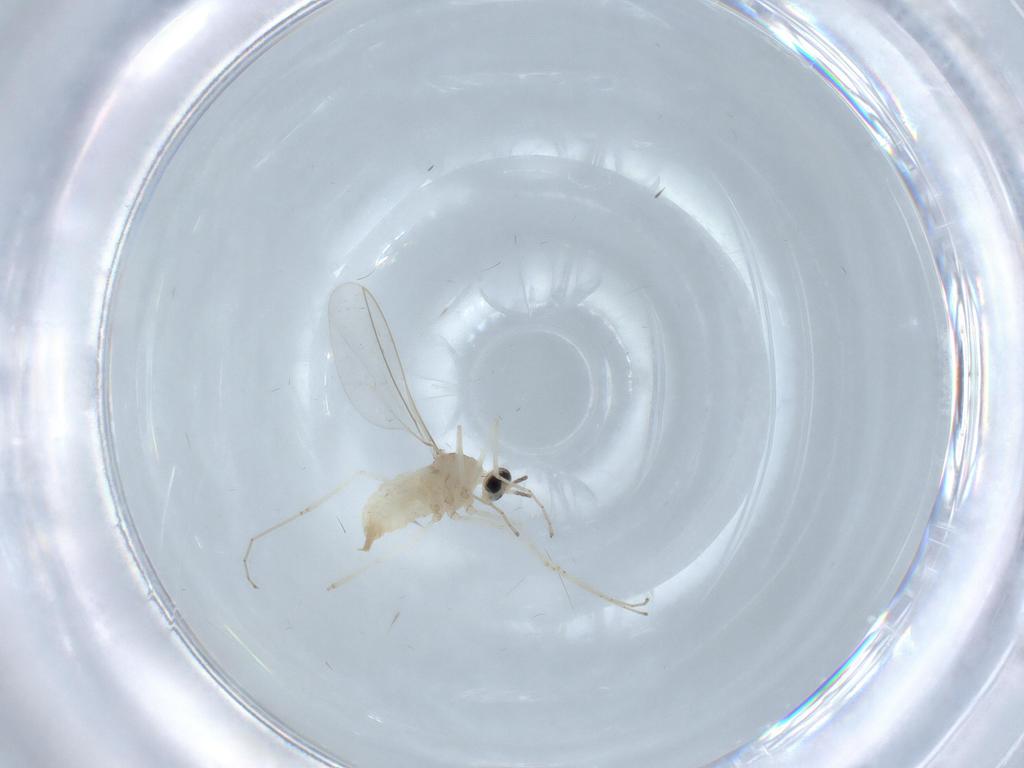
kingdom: Animalia
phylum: Arthropoda
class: Insecta
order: Diptera
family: Cecidomyiidae
